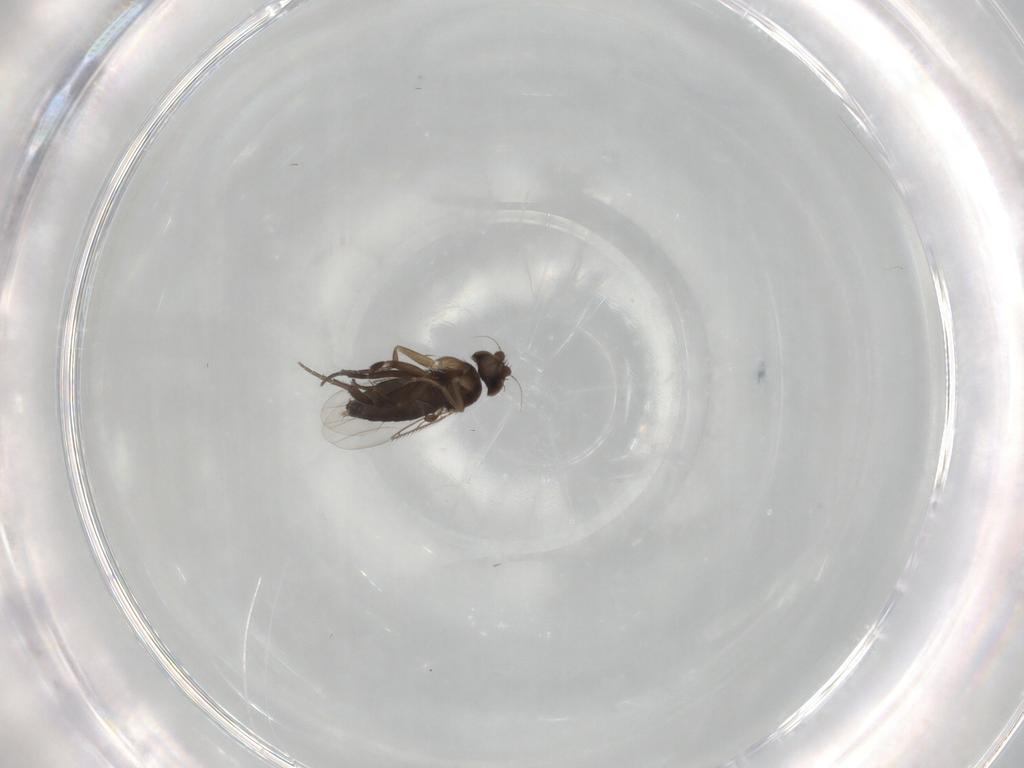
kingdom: Animalia
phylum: Arthropoda
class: Insecta
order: Diptera
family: Phoridae
